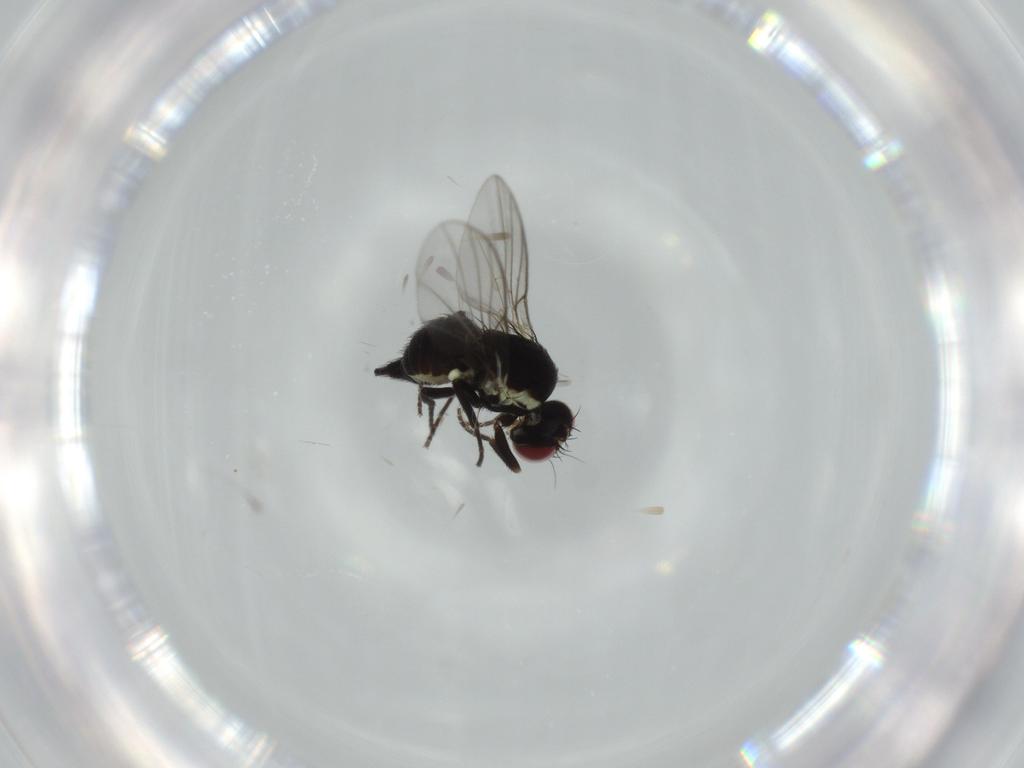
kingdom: Animalia
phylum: Arthropoda
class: Insecta
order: Diptera
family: Agromyzidae
